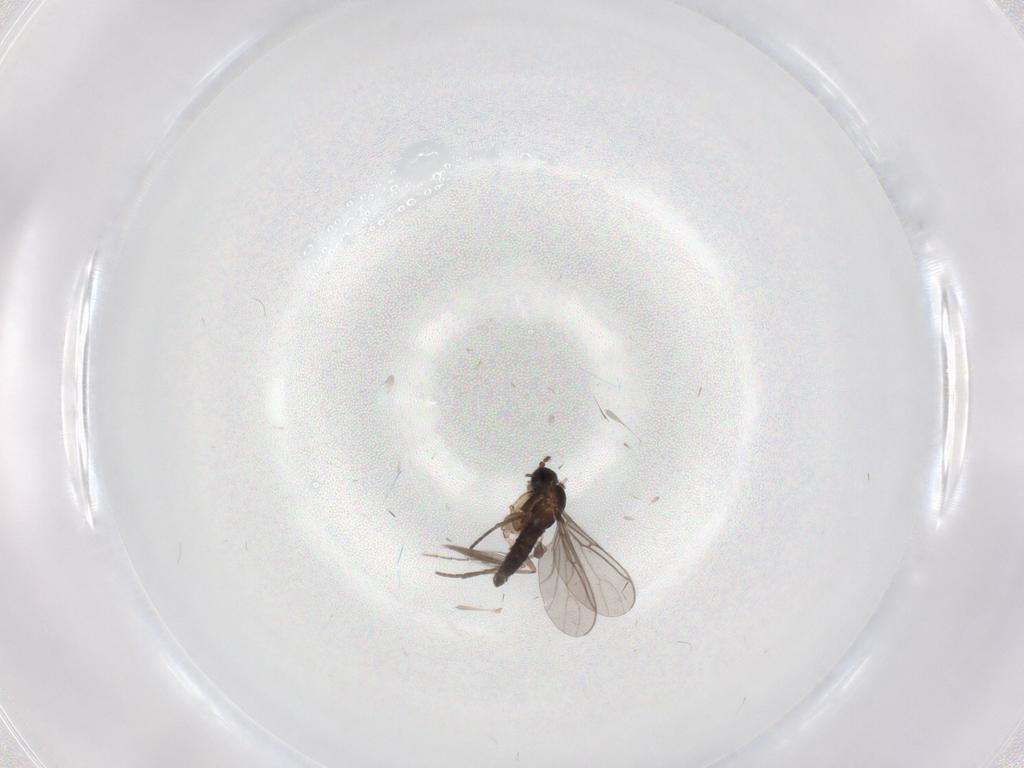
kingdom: Animalia
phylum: Arthropoda
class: Insecta
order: Diptera
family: Ceratopogonidae
